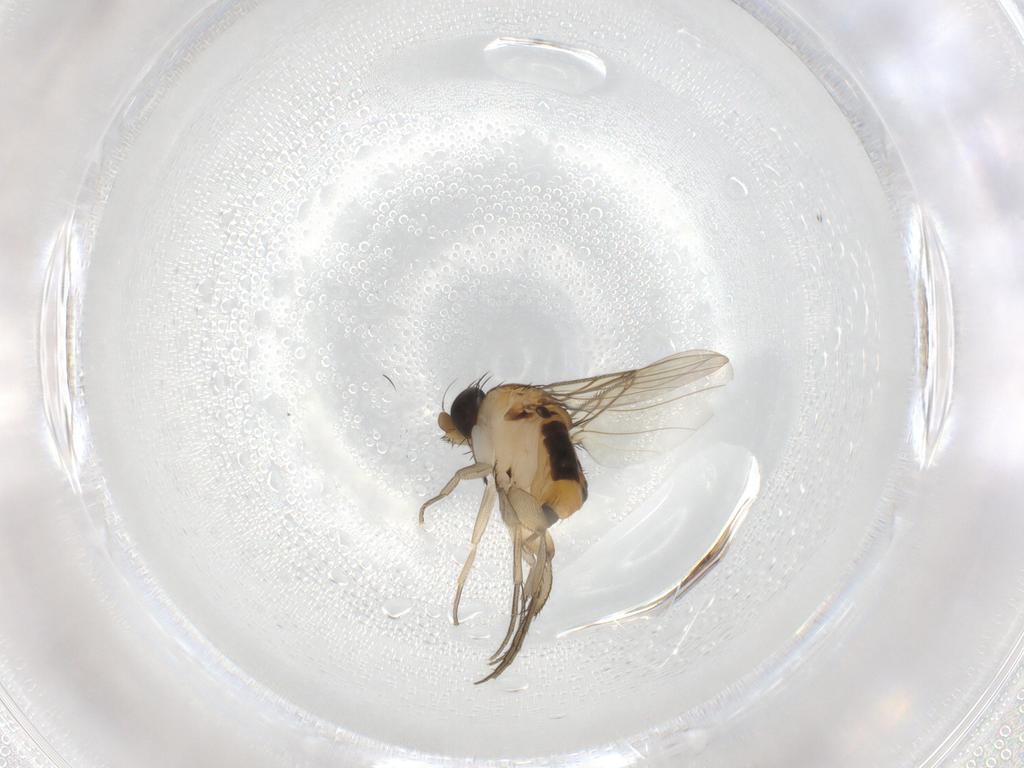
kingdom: Animalia
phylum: Arthropoda
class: Insecta
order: Diptera
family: Phoridae
